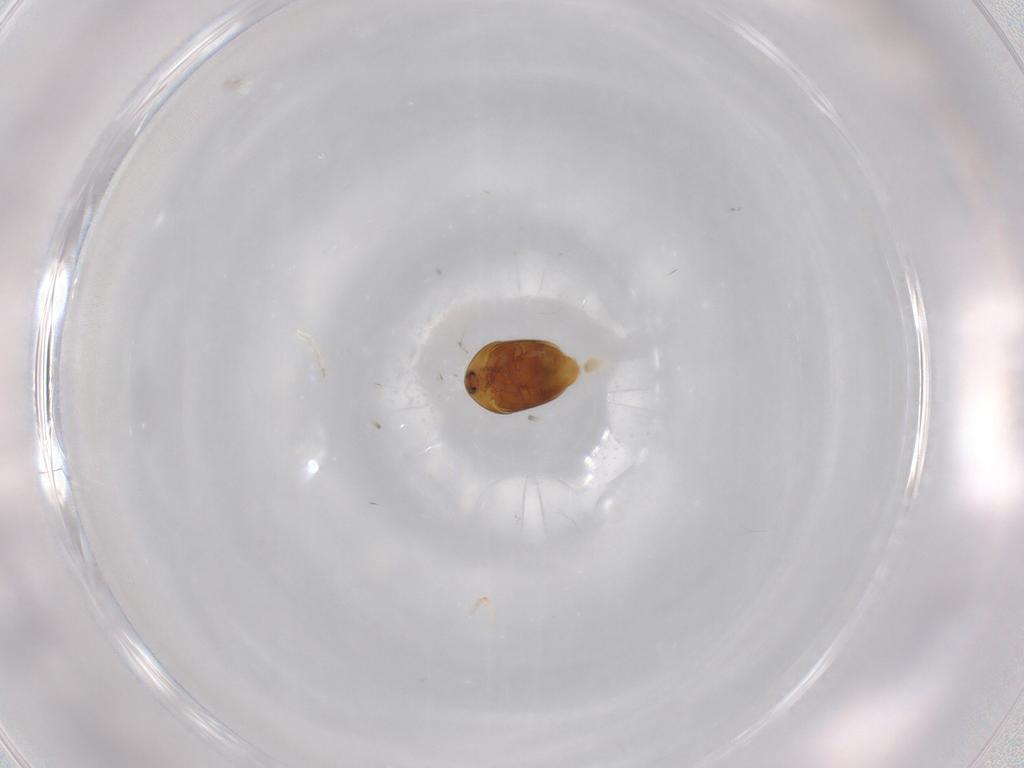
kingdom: Animalia
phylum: Arthropoda
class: Insecta
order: Coleoptera
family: Corylophidae
